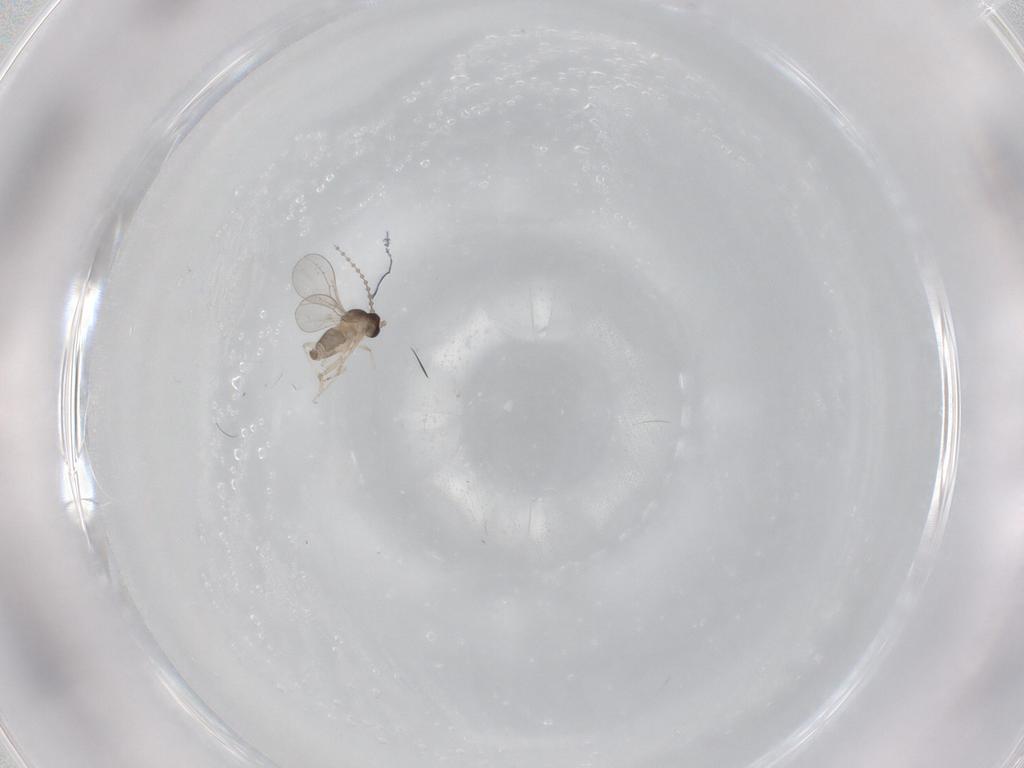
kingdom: Animalia
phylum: Arthropoda
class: Insecta
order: Diptera
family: Cecidomyiidae
